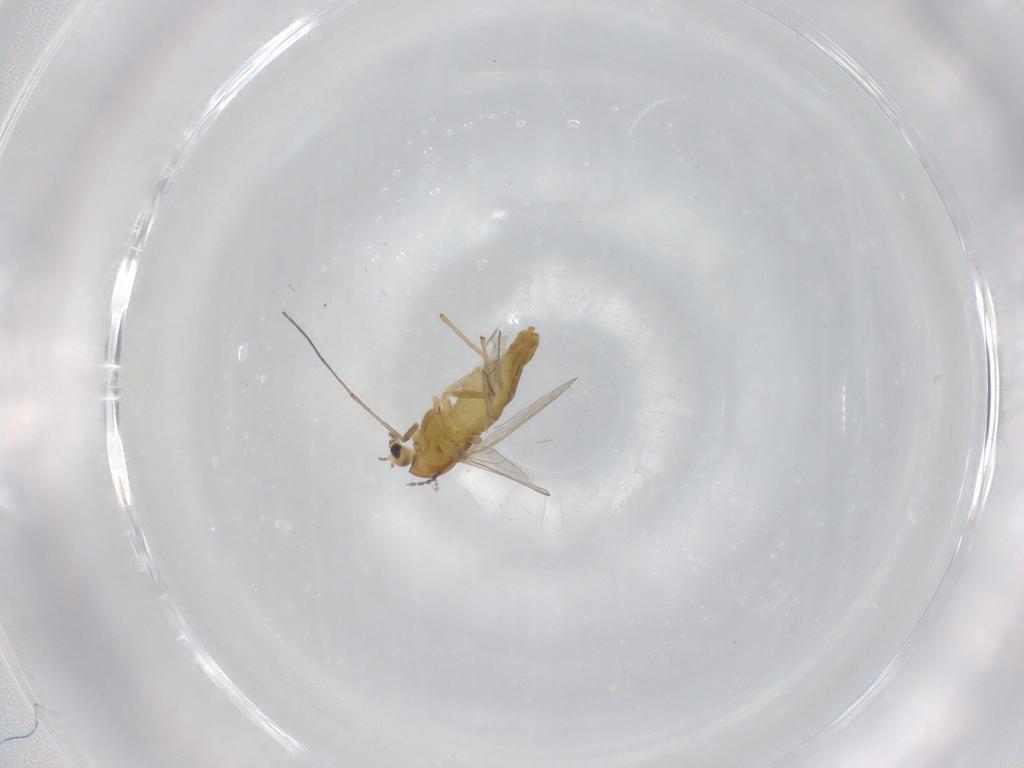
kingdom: Animalia
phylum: Arthropoda
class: Insecta
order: Diptera
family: Chironomidae
